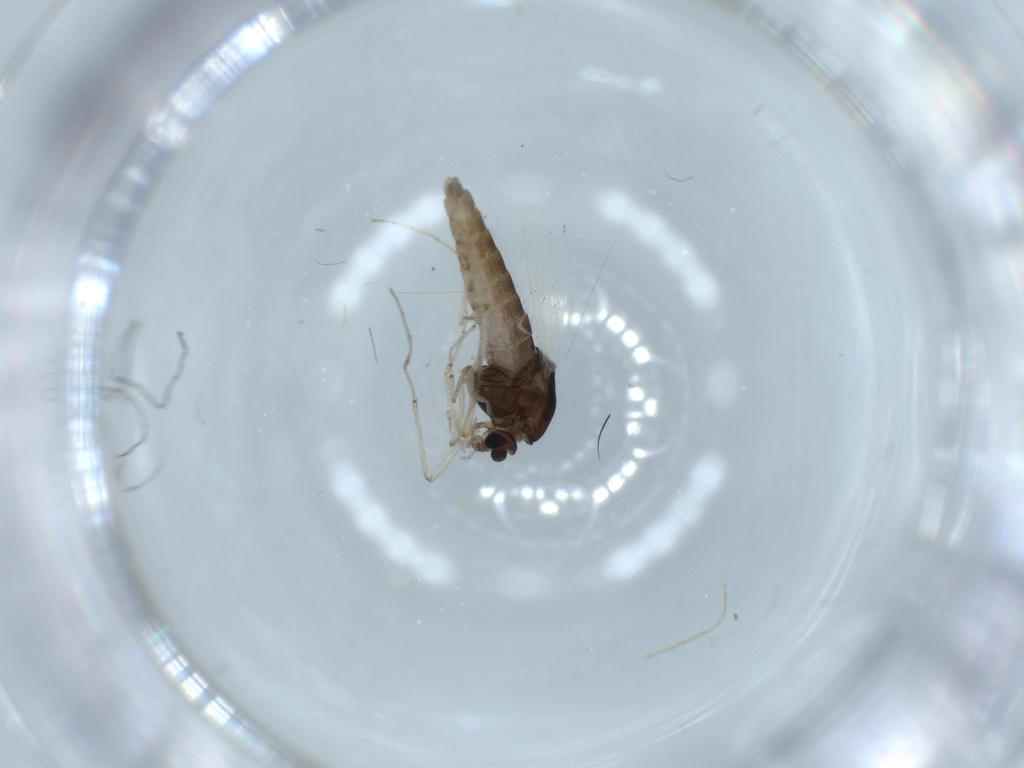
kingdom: Animalia
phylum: Arthropoda
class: Insecta
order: Diptera
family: Chironomidae
